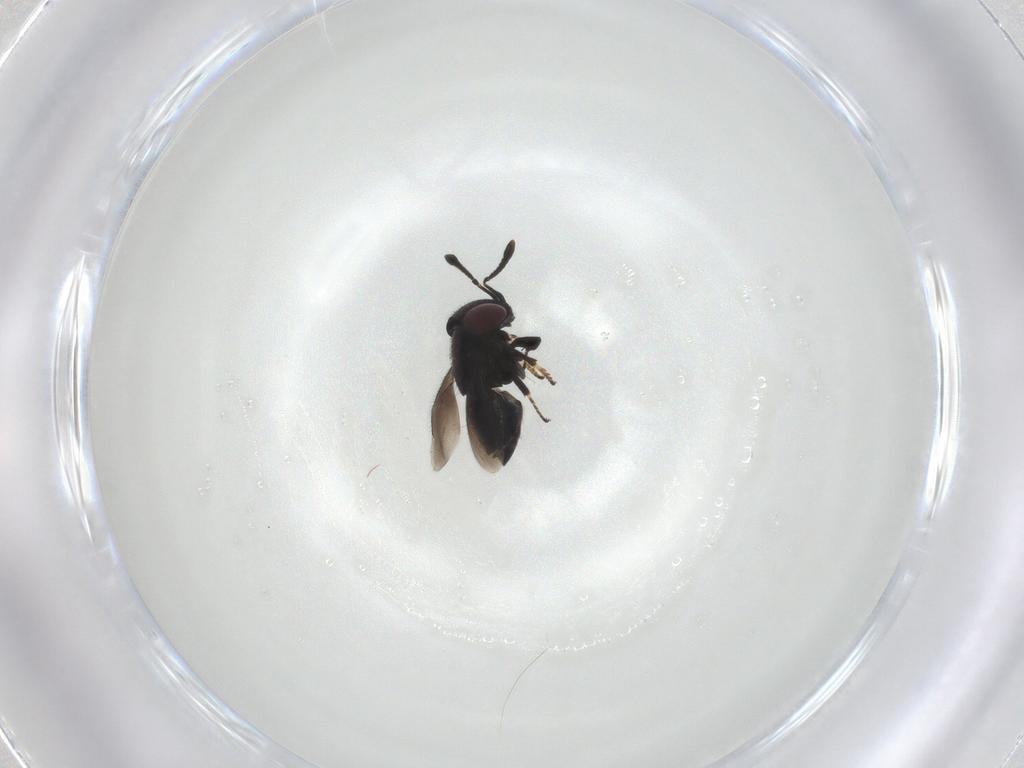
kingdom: Animalia
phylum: Arthropoda
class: Insecta
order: Hymenoptera
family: Encyrtidae
